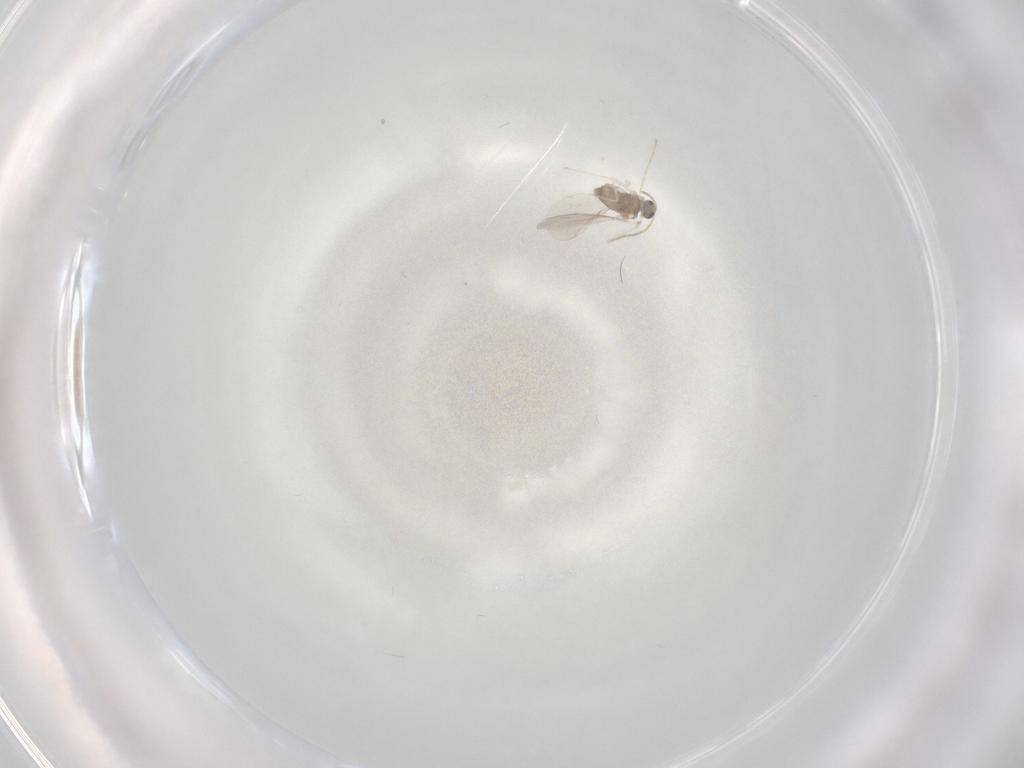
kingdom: Animalia
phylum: Arthropoda
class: Insecta
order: Diptera
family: Cecidomyiidae
